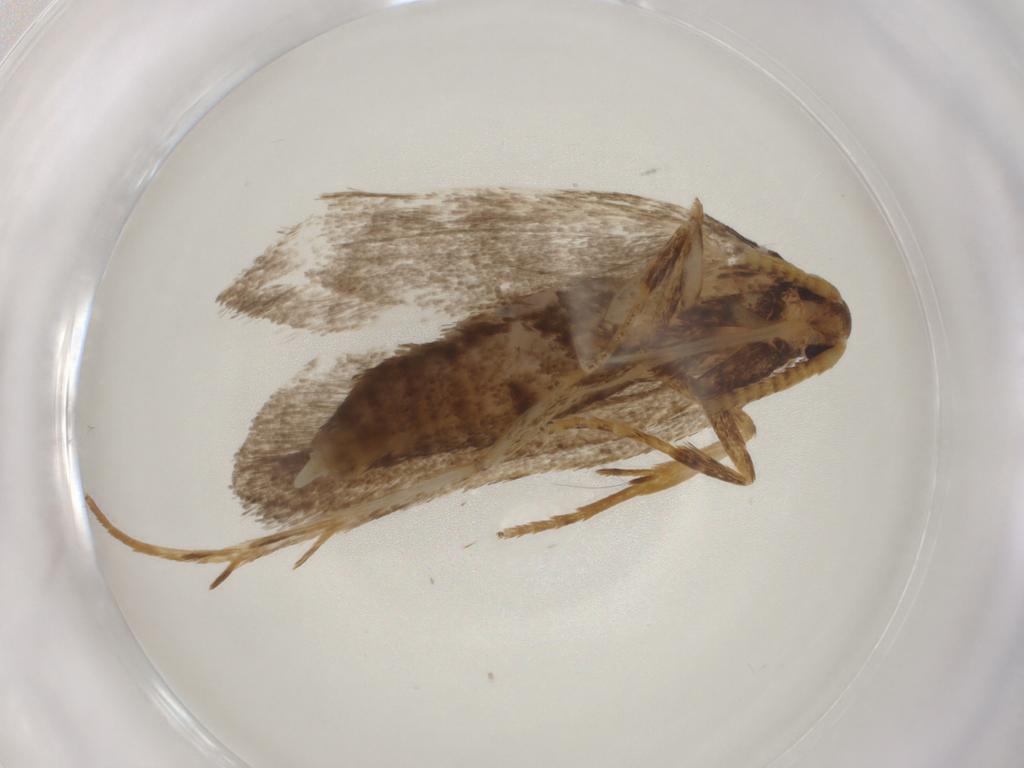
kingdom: Animalia
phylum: Arthropoda
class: Insecta
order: Lepidoptera
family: Lecithoceridae
